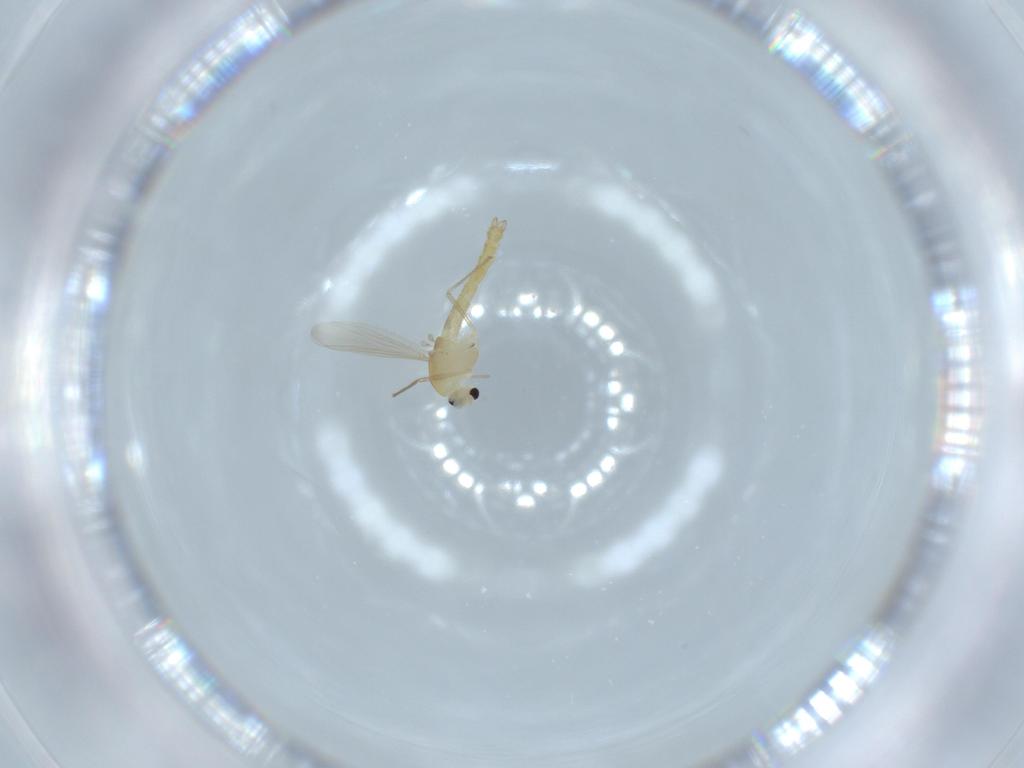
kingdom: Animalia
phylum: Arthropoda
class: Insecta
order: Diptera
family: Chironomidae
